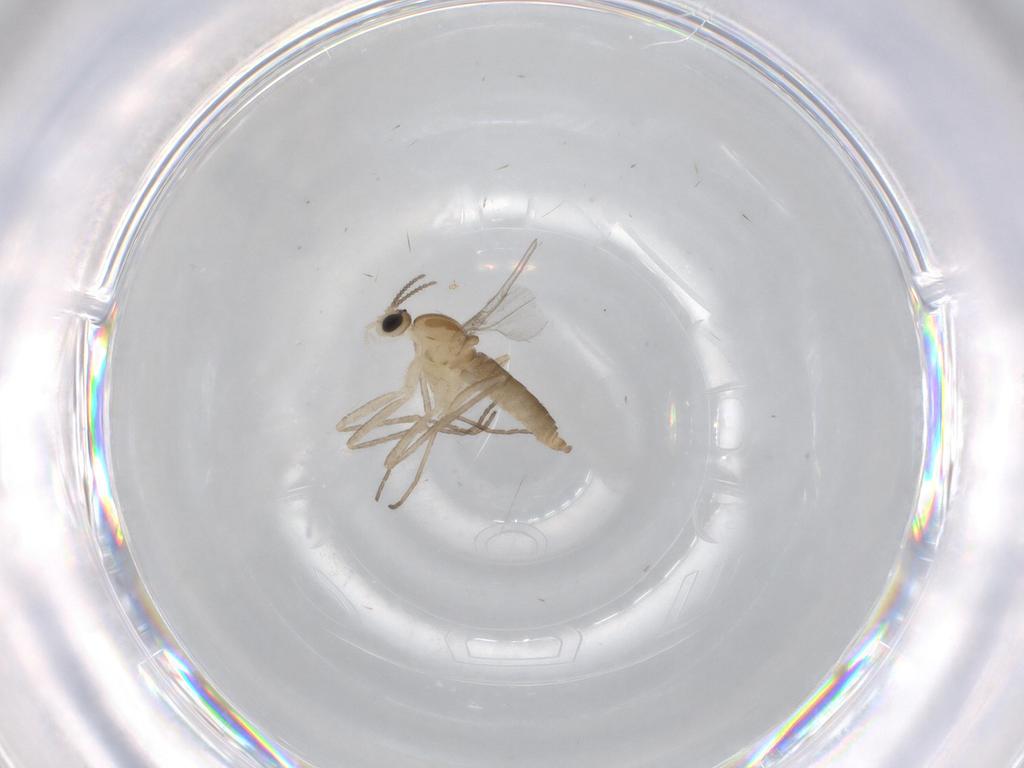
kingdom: Animalia
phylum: Arthropoda
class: Insecta
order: Diptera
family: Cecidomyiidae
